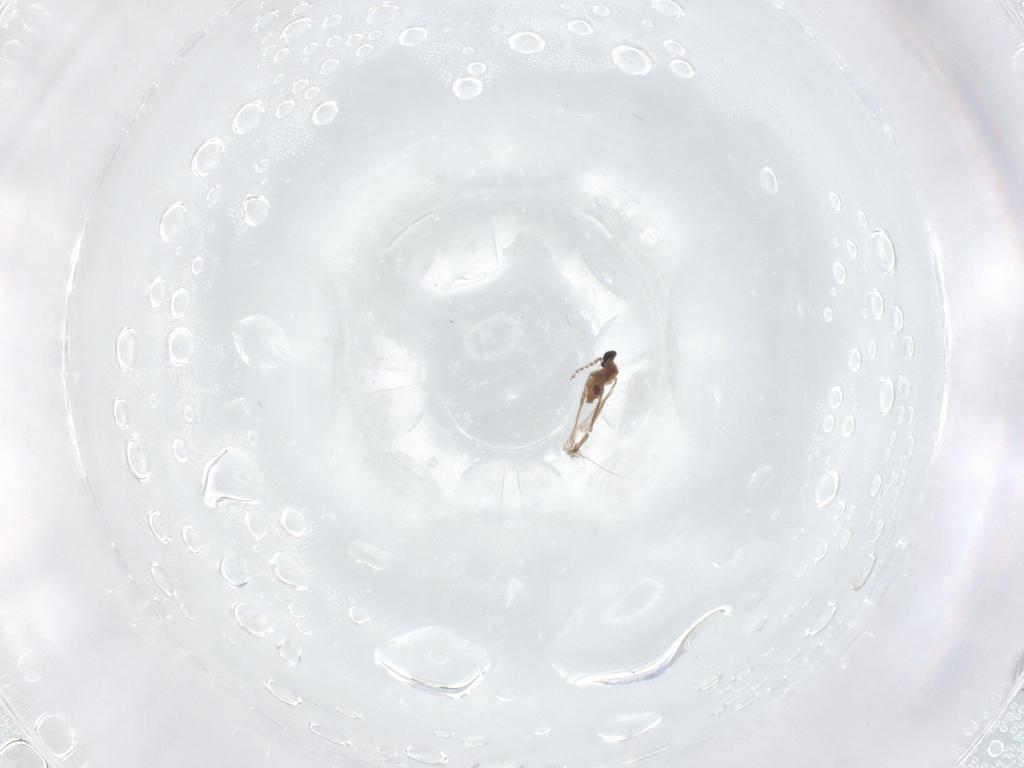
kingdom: Animalia
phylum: Arthropoda
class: Insecta
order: Diptera
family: Cecidomyiidae
